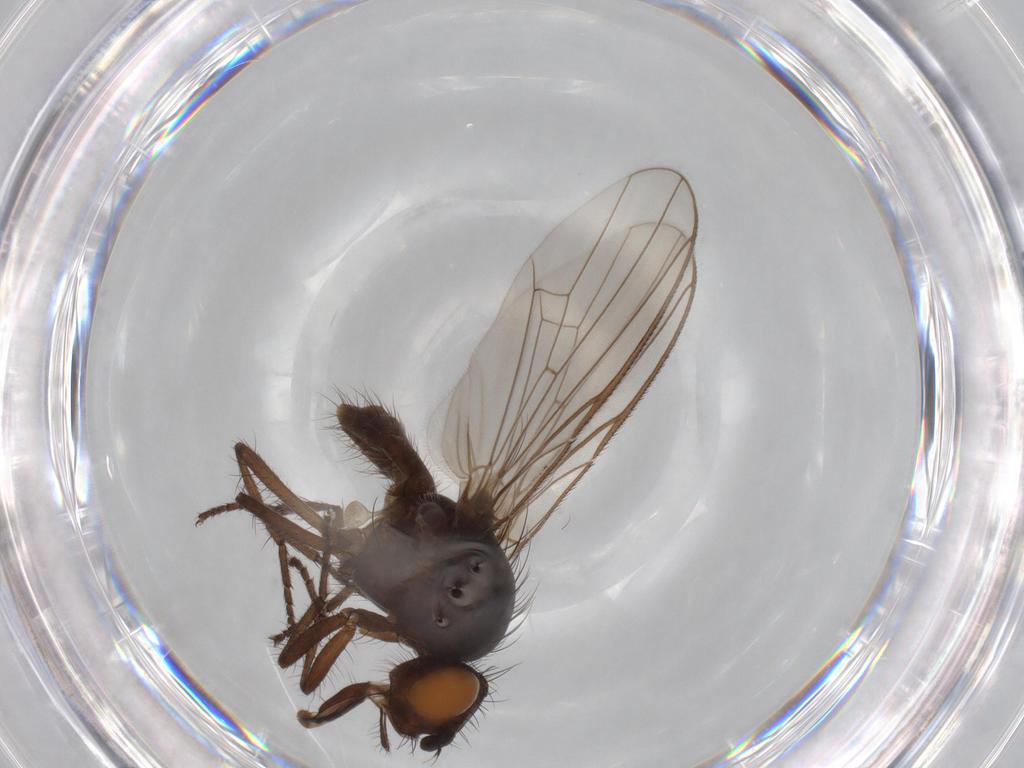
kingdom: Animalia
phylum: Arthropoda
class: Insecta
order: Diptera
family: Anthomyiidae
